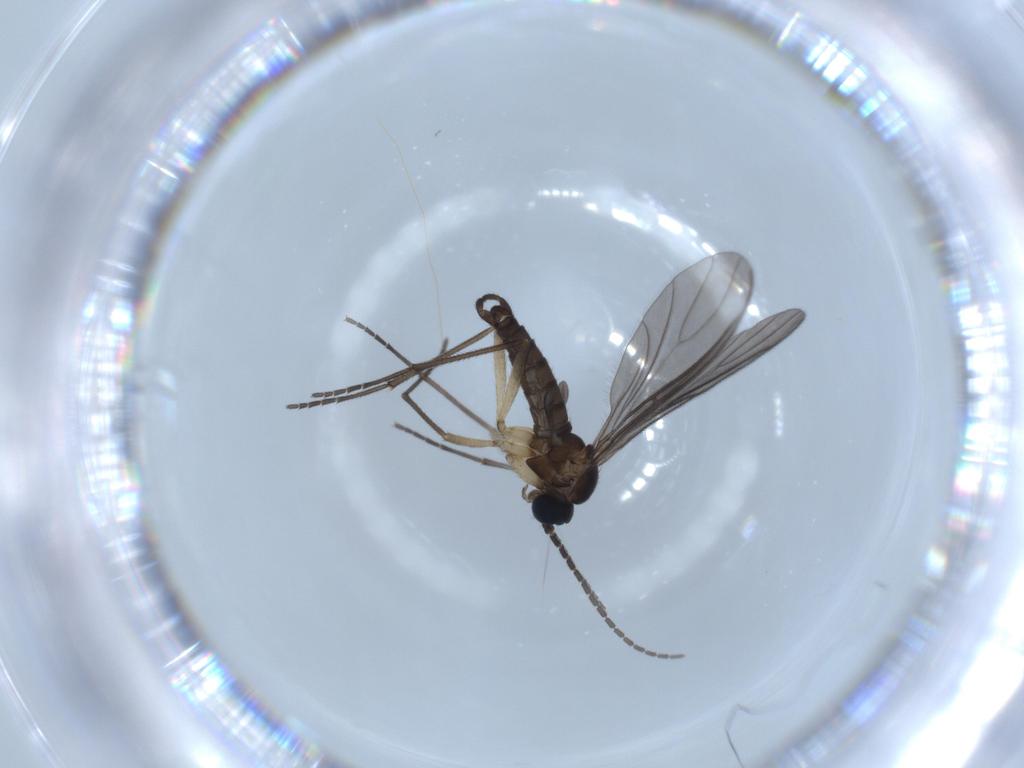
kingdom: Animalia
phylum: Arthropoda
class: Insecta
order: Diptera
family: Sciaridae
